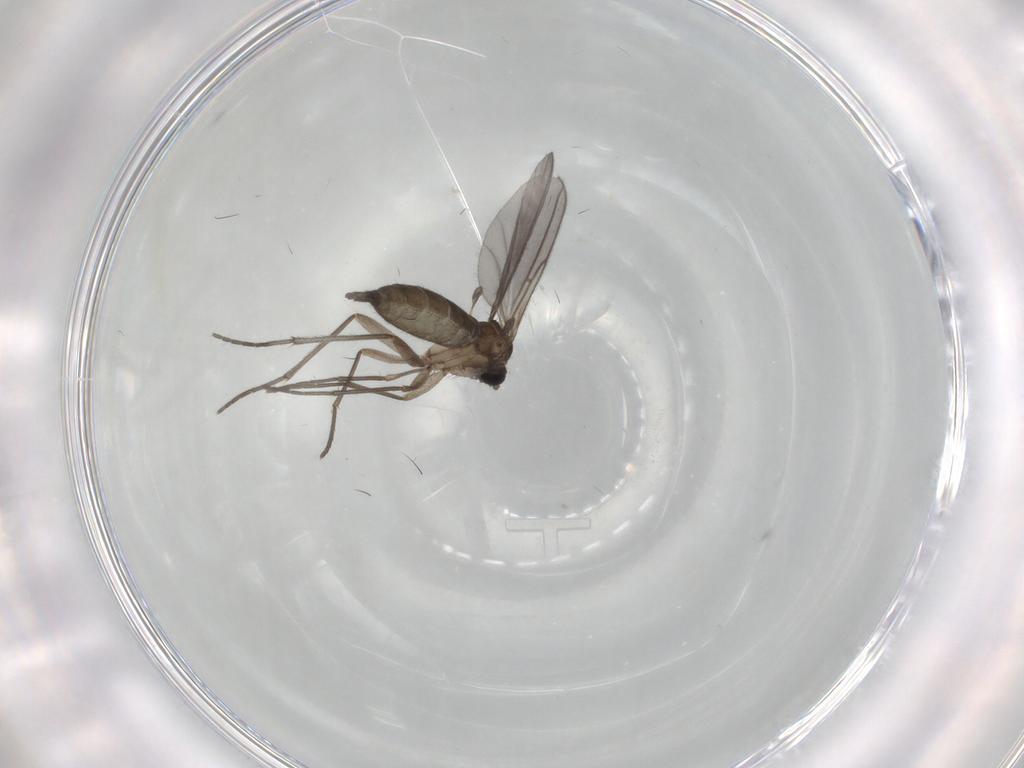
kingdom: Animalia
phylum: Arthropoda
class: Insecta
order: Diptera
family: Sciaridae
